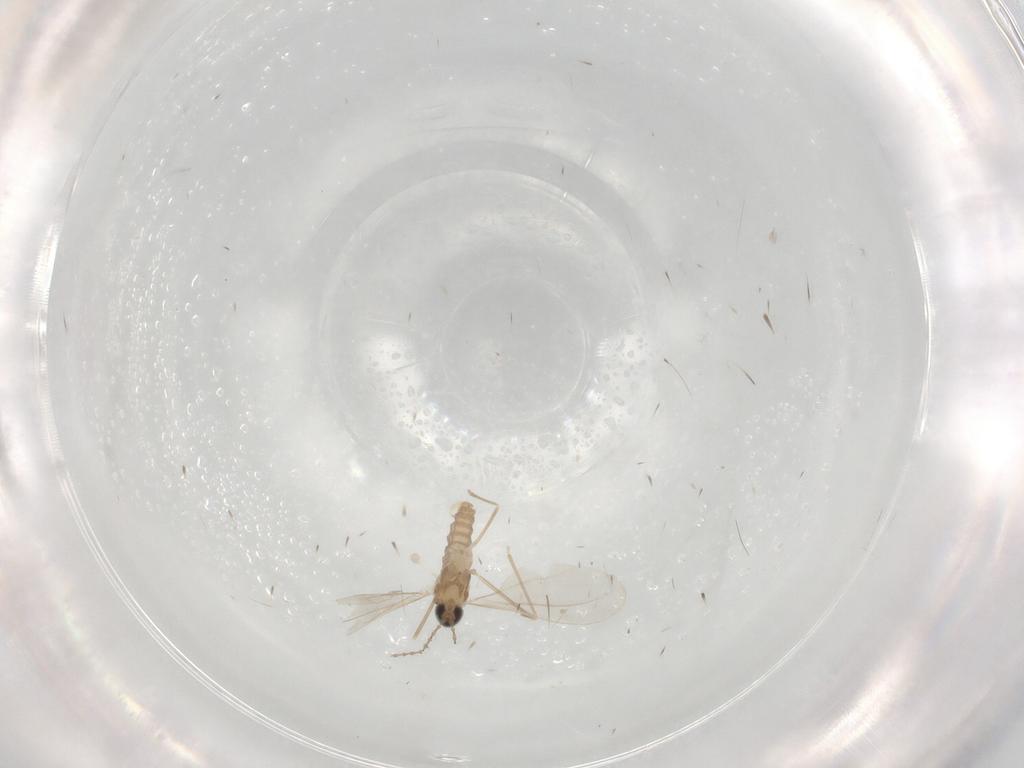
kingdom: Animalia
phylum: Arthropoda
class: Insecta
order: Diptera
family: Cecidomyiidae
